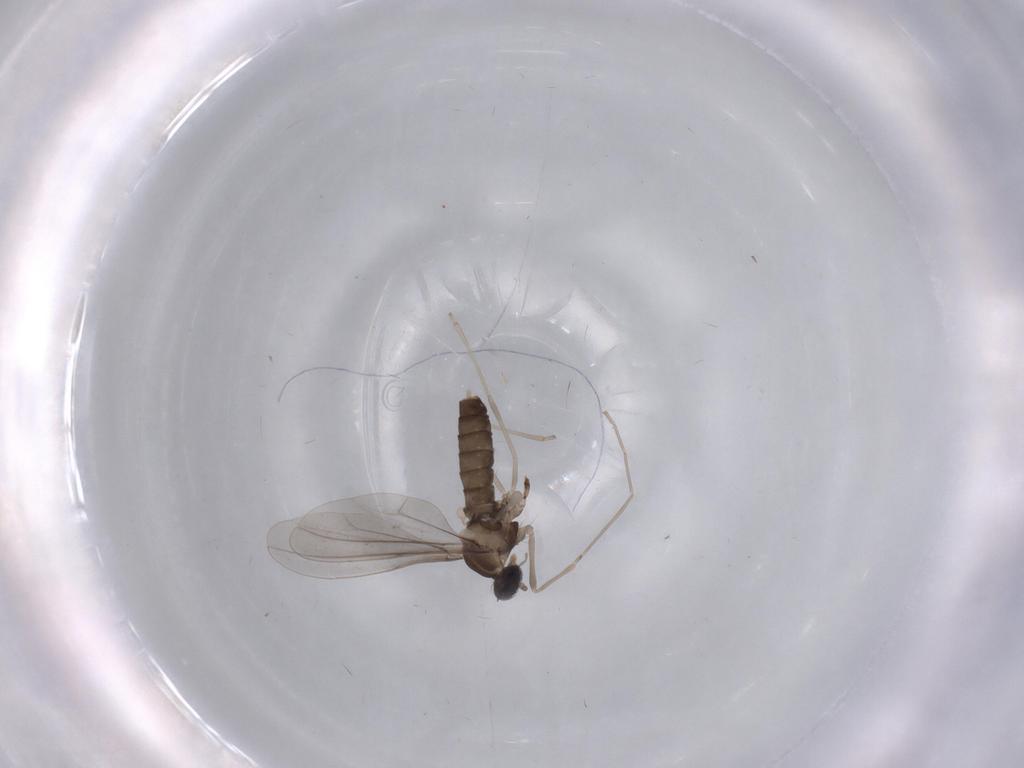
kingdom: Animalia
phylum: Arthropoda
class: Insecta
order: Diptera
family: Cecidomyiidae
